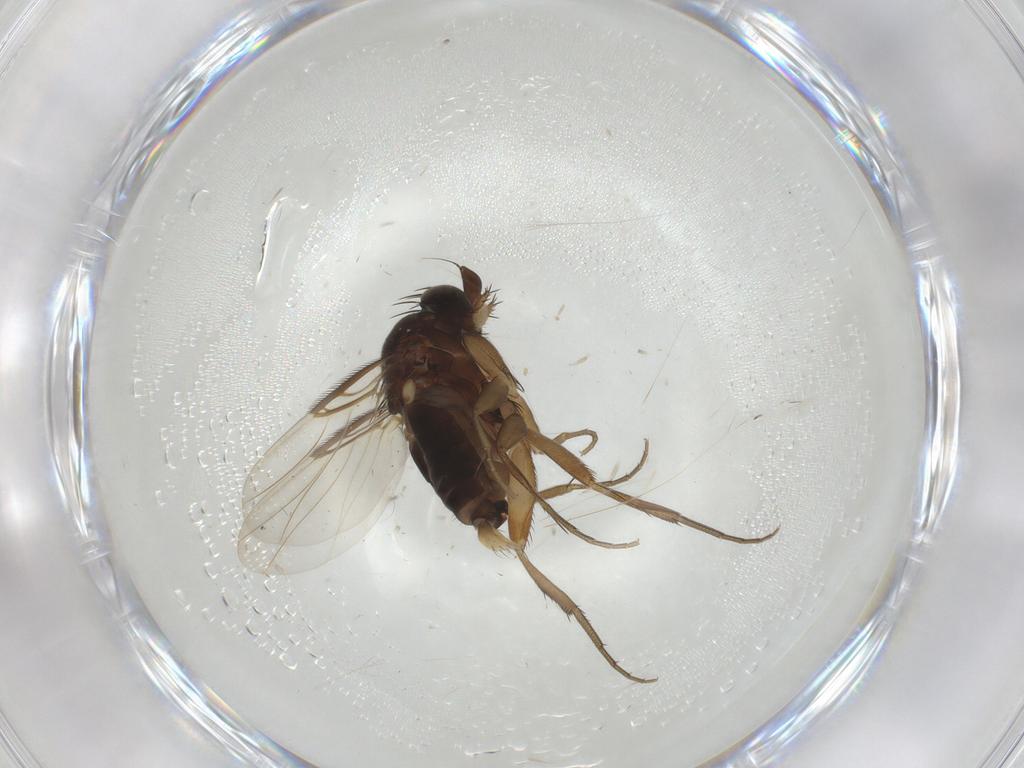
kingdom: Animalia
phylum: Arthropoda
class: Insecta
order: Diptera
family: Phoridae
